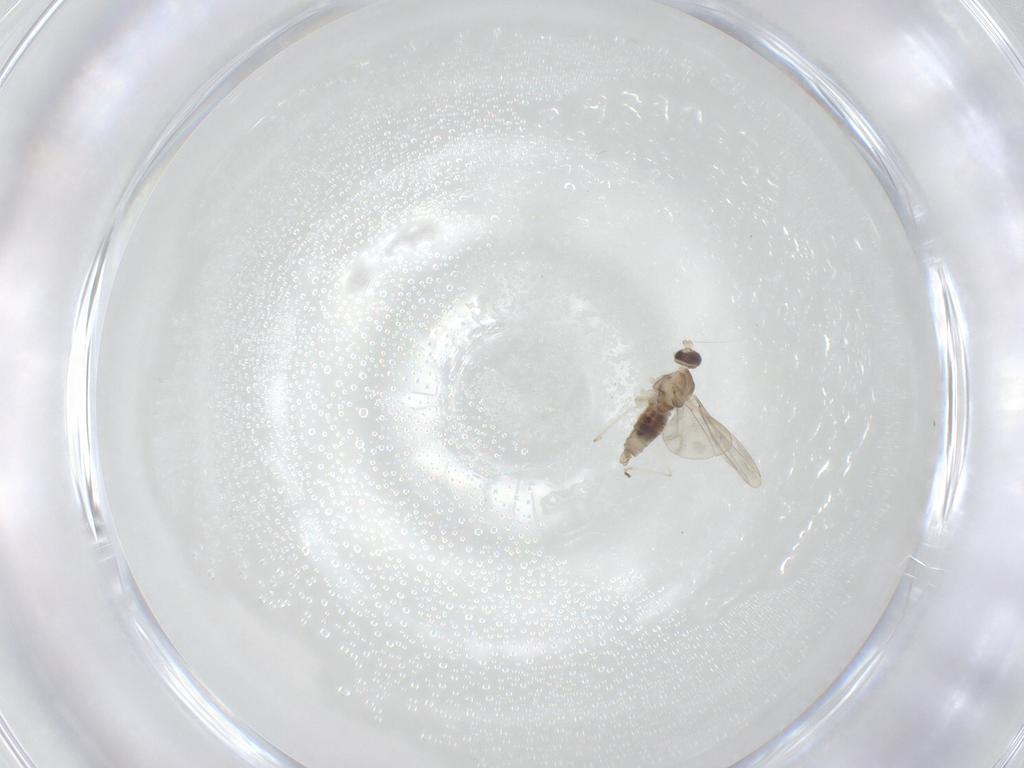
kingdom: Animalia
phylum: Arthropoda
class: Insecta
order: Diptera
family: Cecidomyiidae
